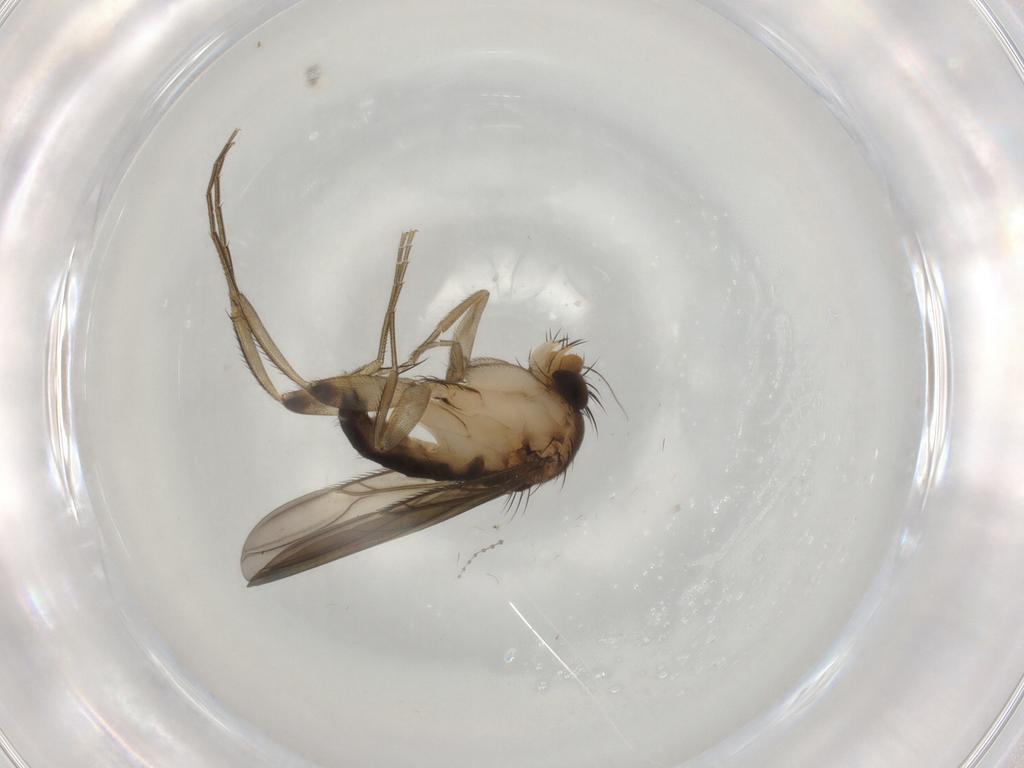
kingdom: Animalia
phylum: Arthropoda
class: Insecta
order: Diptera
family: Phoridae
